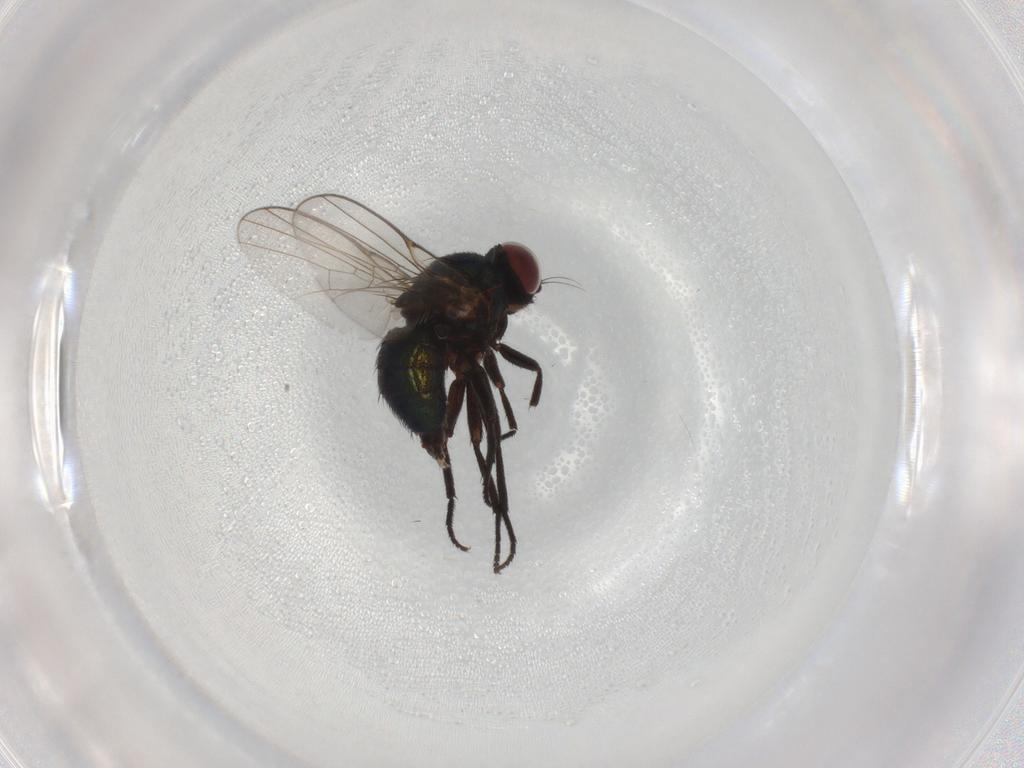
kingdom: Animalia
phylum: Arthropoda
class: Insecta
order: Diptera
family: Agromyzidae
